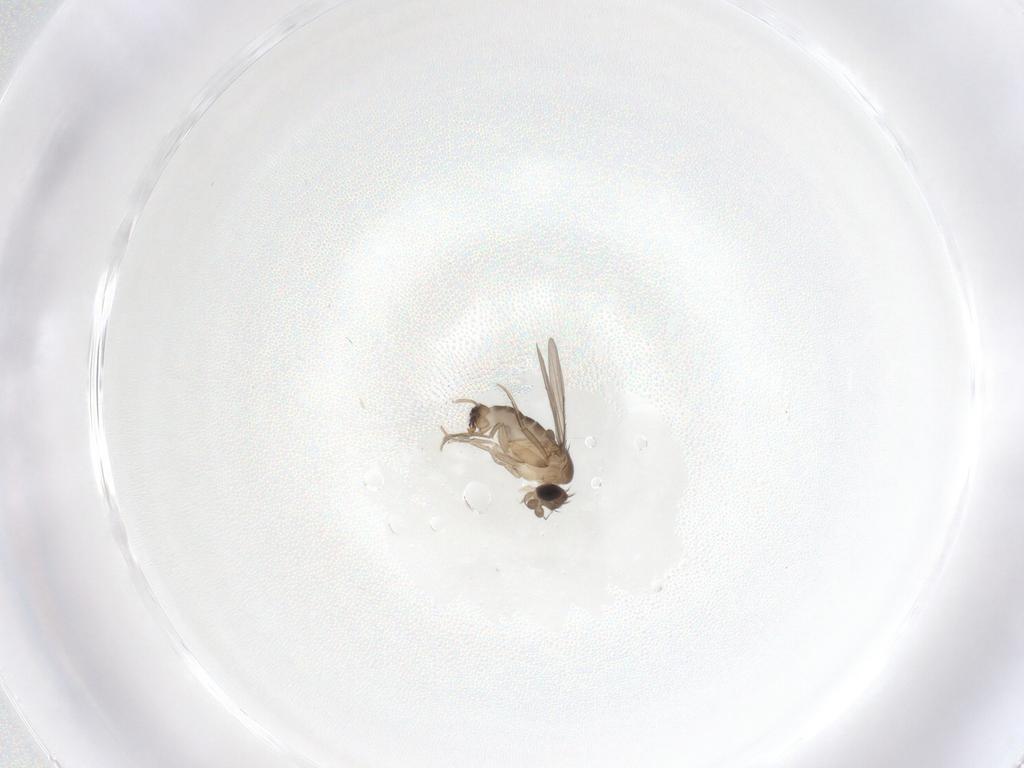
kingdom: Animalia
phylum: Arthropoda
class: Insecta
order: Diptera
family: Phoridae
